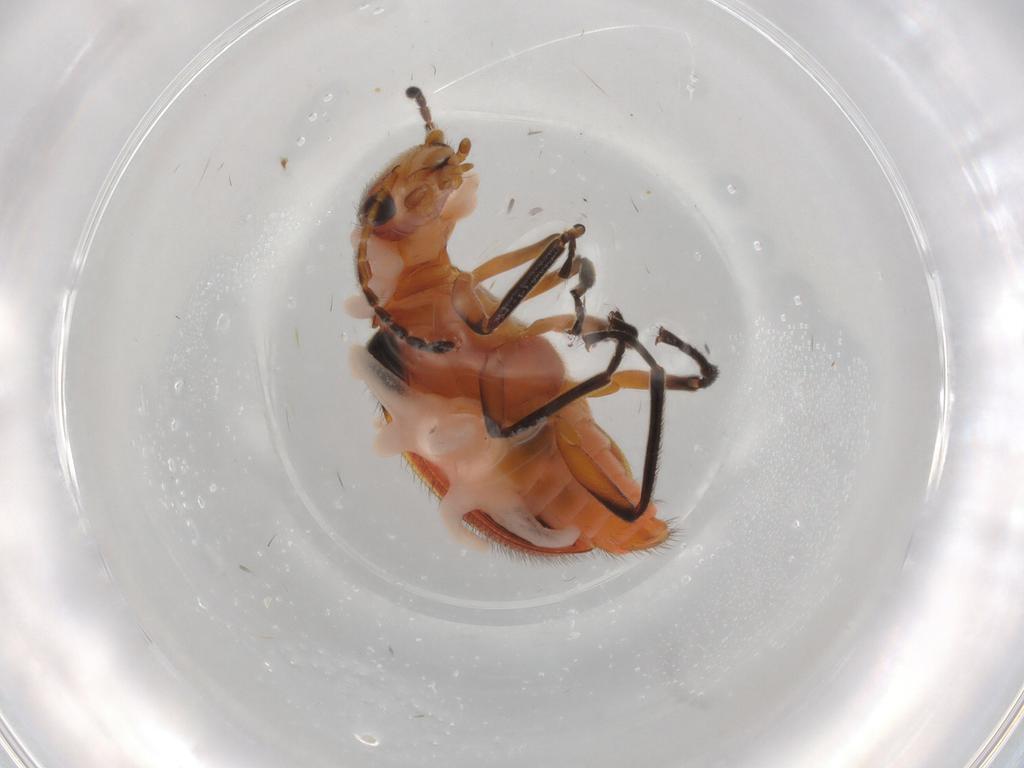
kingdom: Animalia
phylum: Arthropoda
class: Insecta
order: Coleoptera
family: Melyridae
